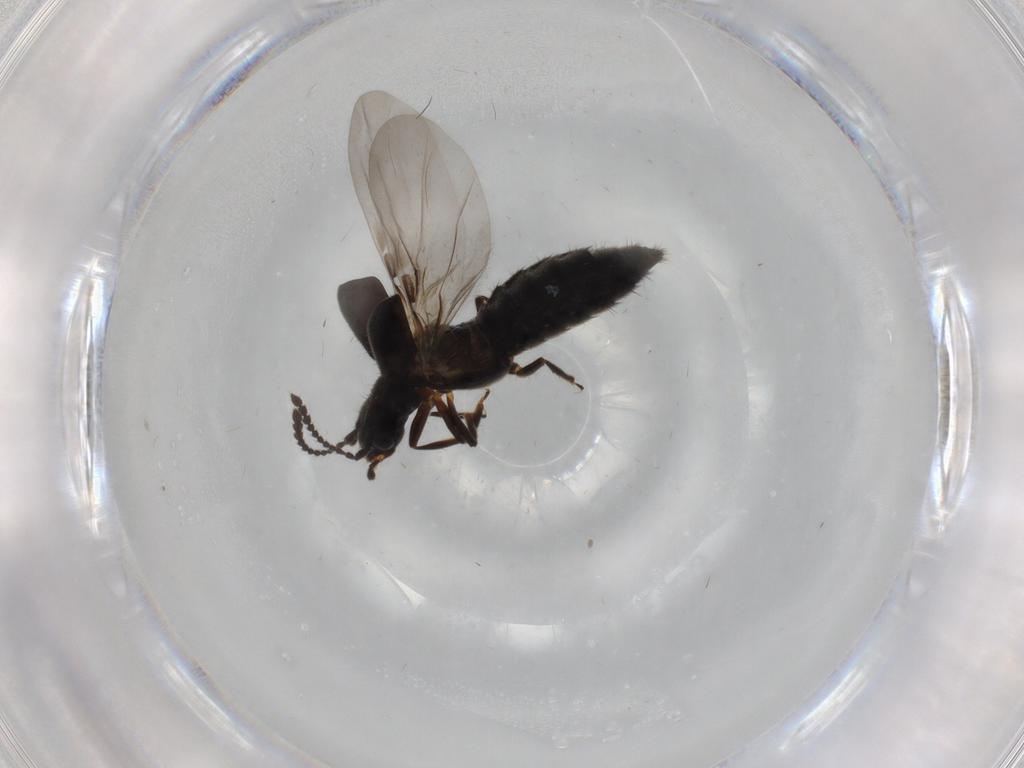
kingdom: Animalia
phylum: Arthropoda
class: Insecta
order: Coleoptera
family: Staphylinidae
